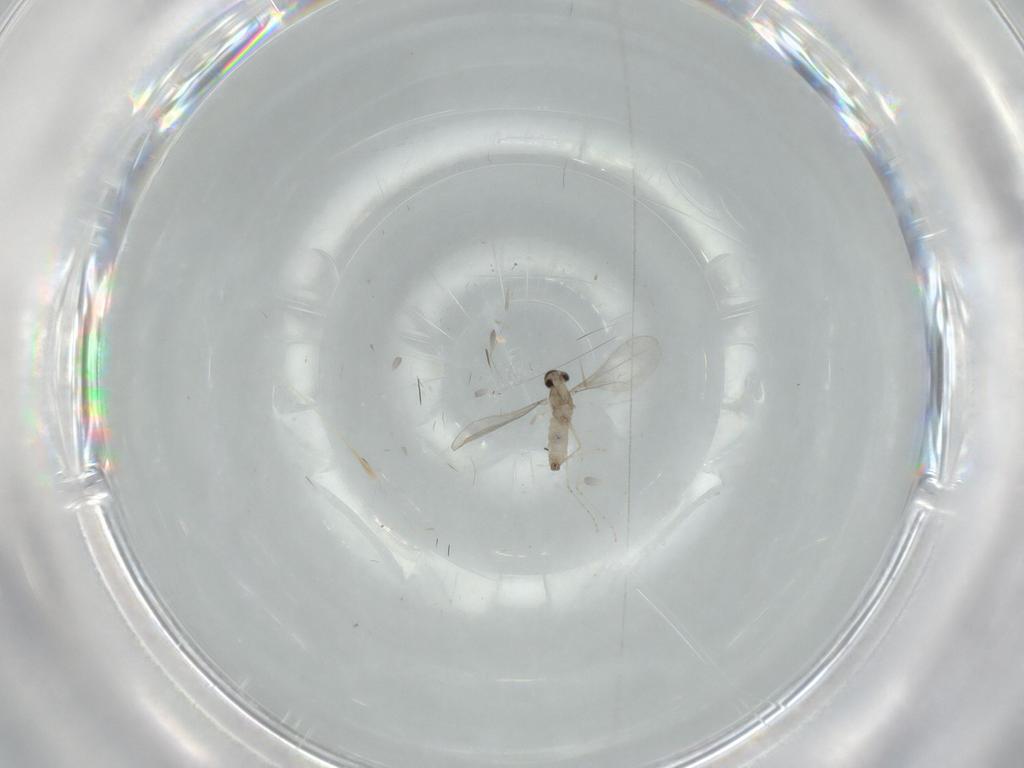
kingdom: Animalia
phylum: Arthropoda
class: Insecta
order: Diptera
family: Cecidomyiidae
